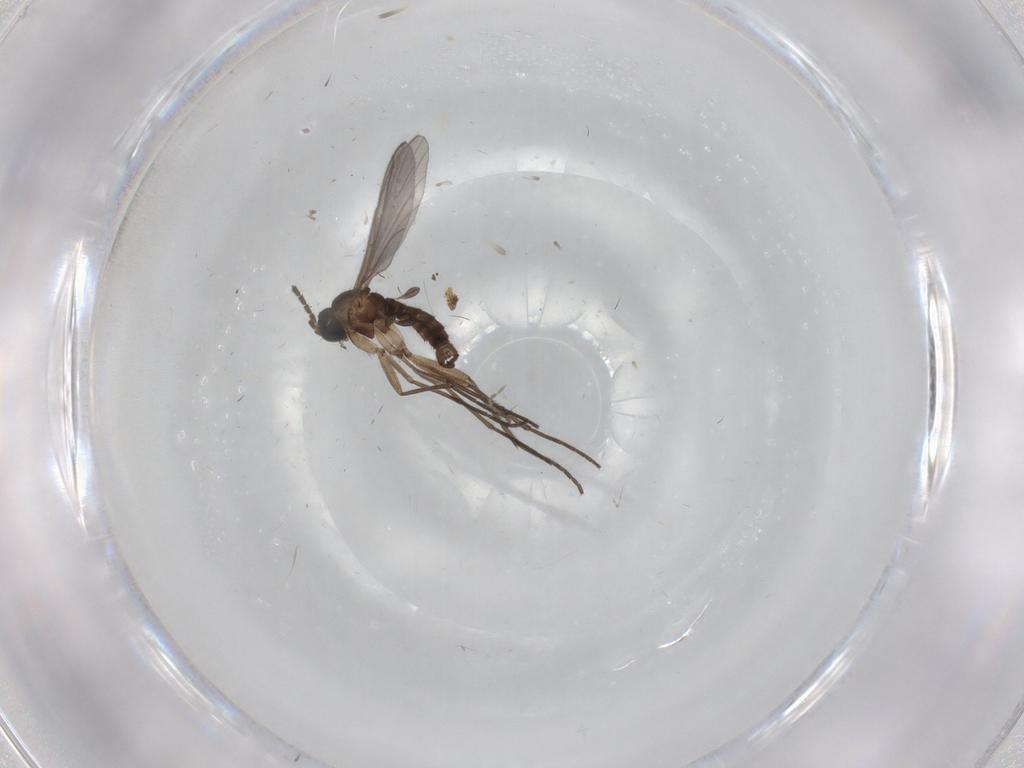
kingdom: Animalia
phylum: Arthropoda
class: Insecta
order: Diptera
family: Sciaridae
